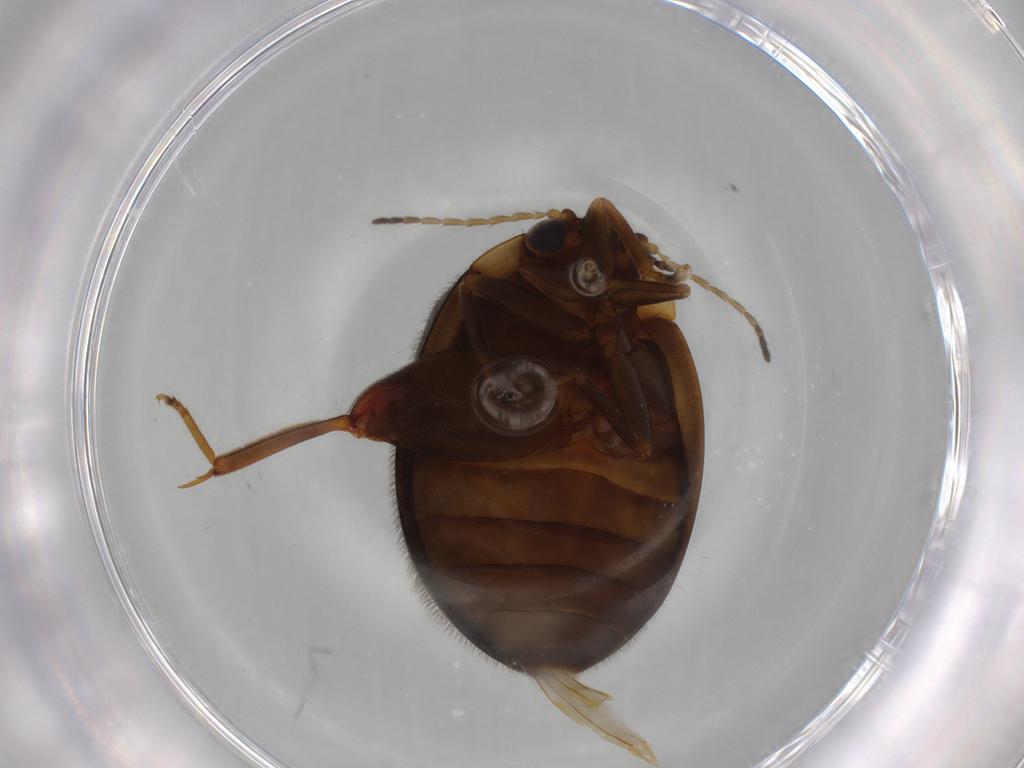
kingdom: Animalia
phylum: Arthropoda
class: Insecta
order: Coleoptera
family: Scirtidae
